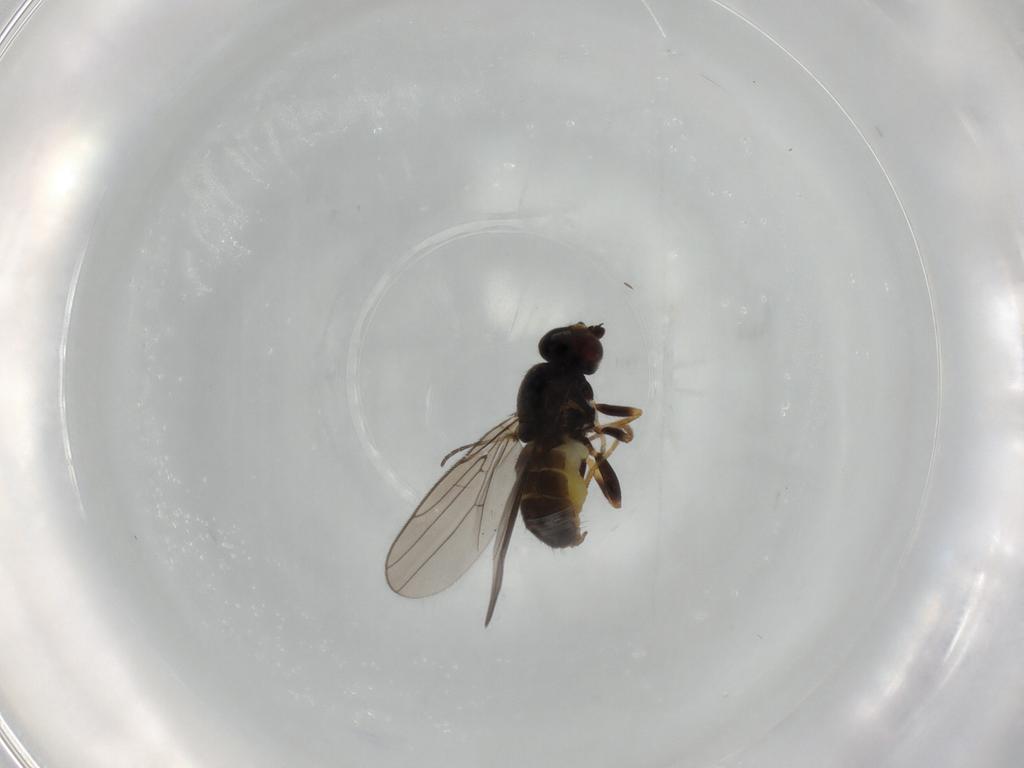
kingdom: Animalia
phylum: Arthropoda
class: Insecta
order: Diptera
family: Chloropidae
